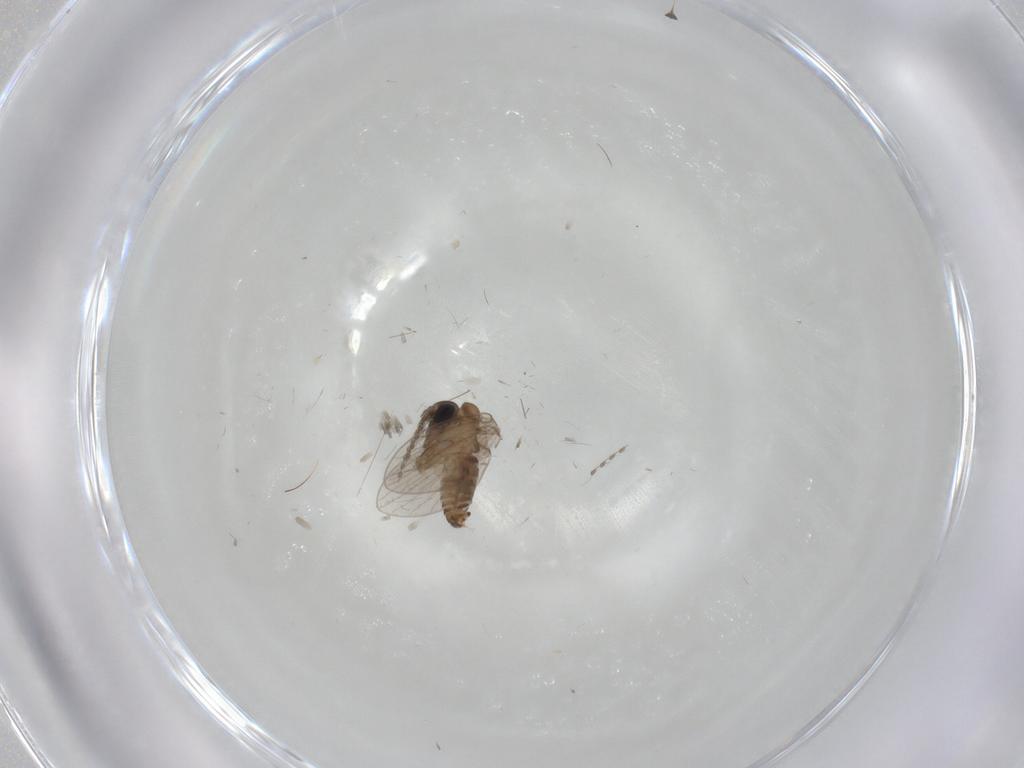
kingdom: Animalia
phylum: Arthropoda
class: Insecta
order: Diptera
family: Psychodidae
